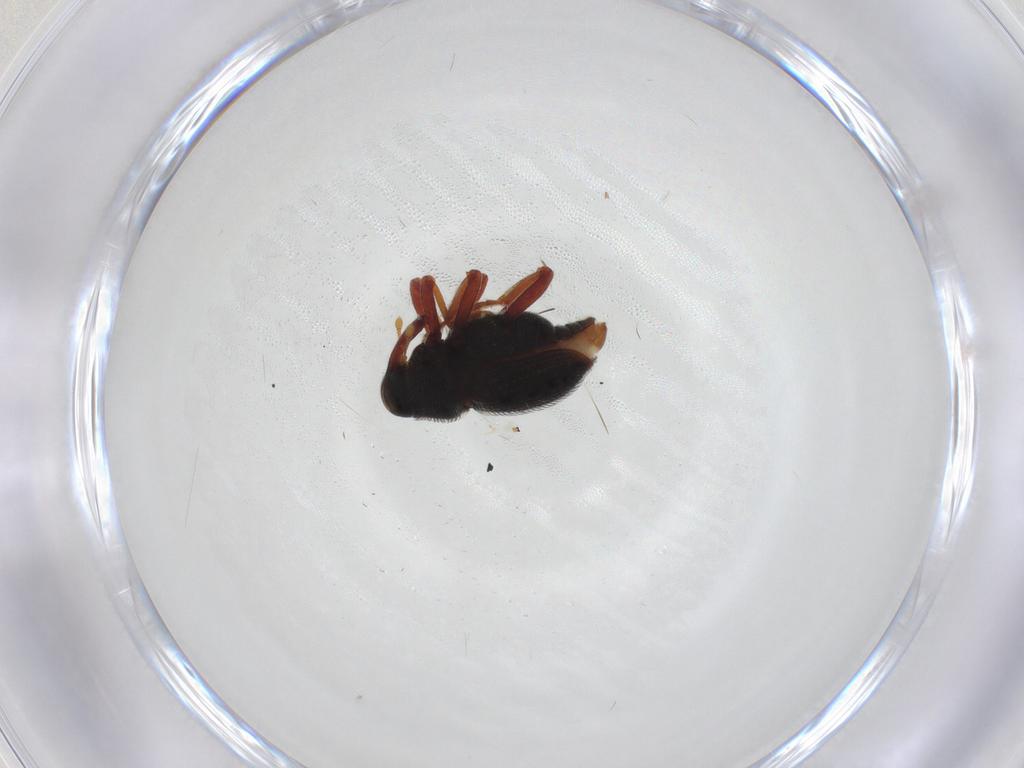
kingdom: Animalia
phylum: Arthropoda
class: Insecta
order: Coleoptera
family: Curculionidae
